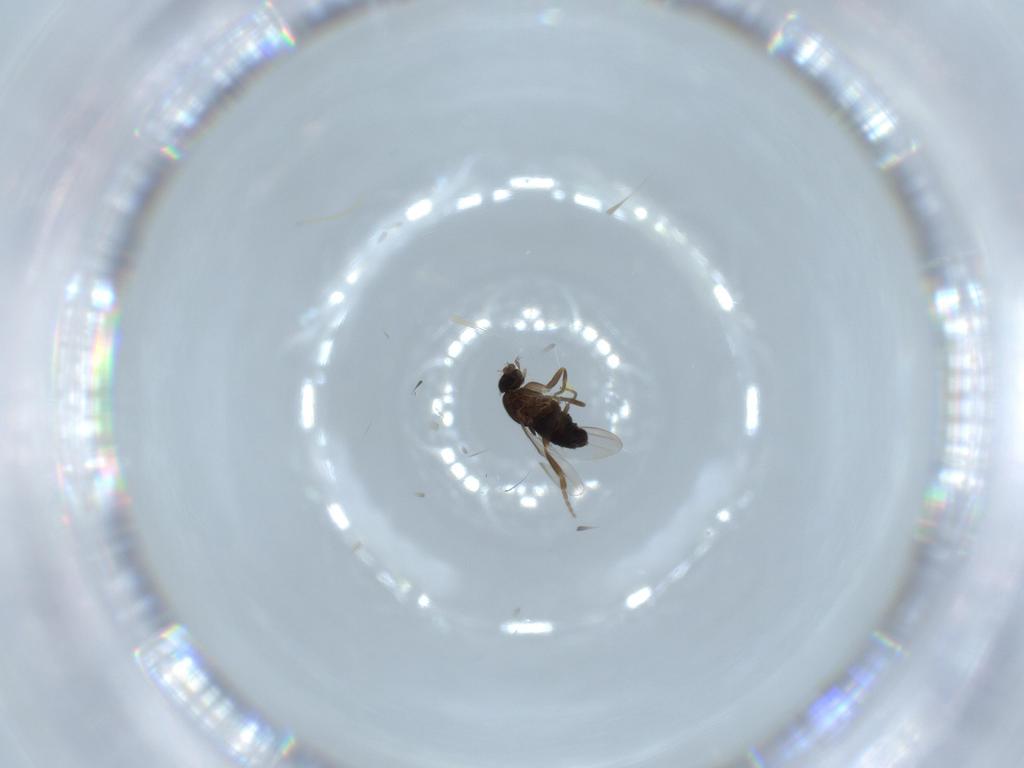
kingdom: Animalia
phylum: Arthropoda
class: Insecta
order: Diptera
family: Phoridae
